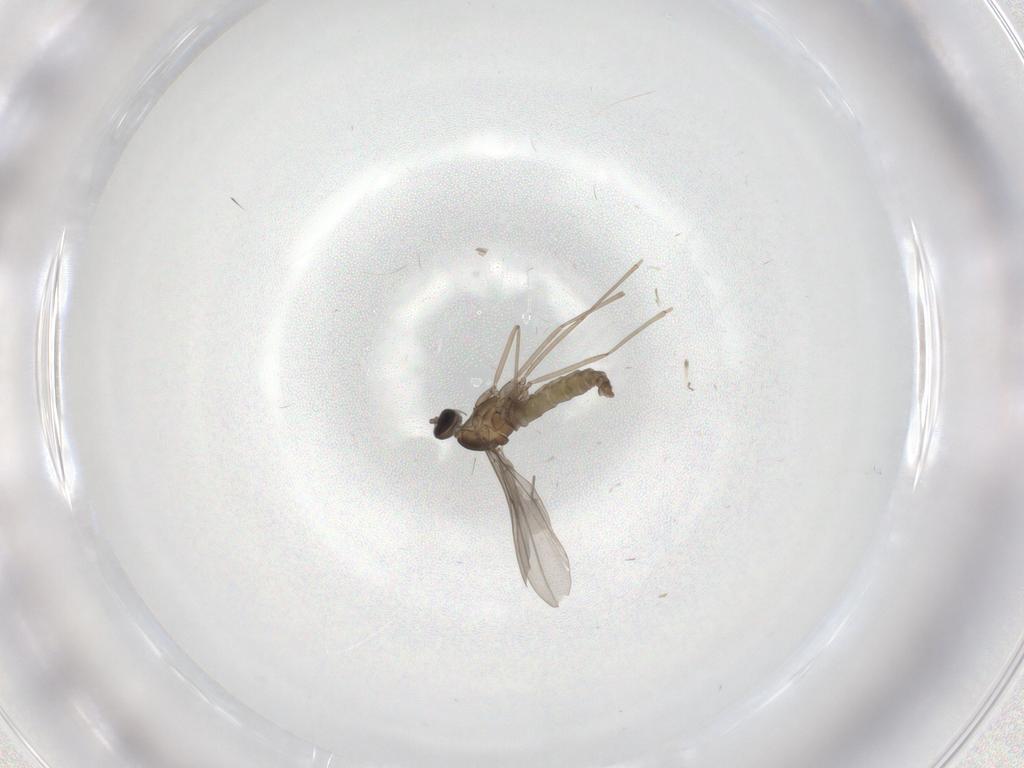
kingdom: Animalia
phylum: Arthropoda
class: Insecta
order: Diptera
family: Cecidomyiidae
